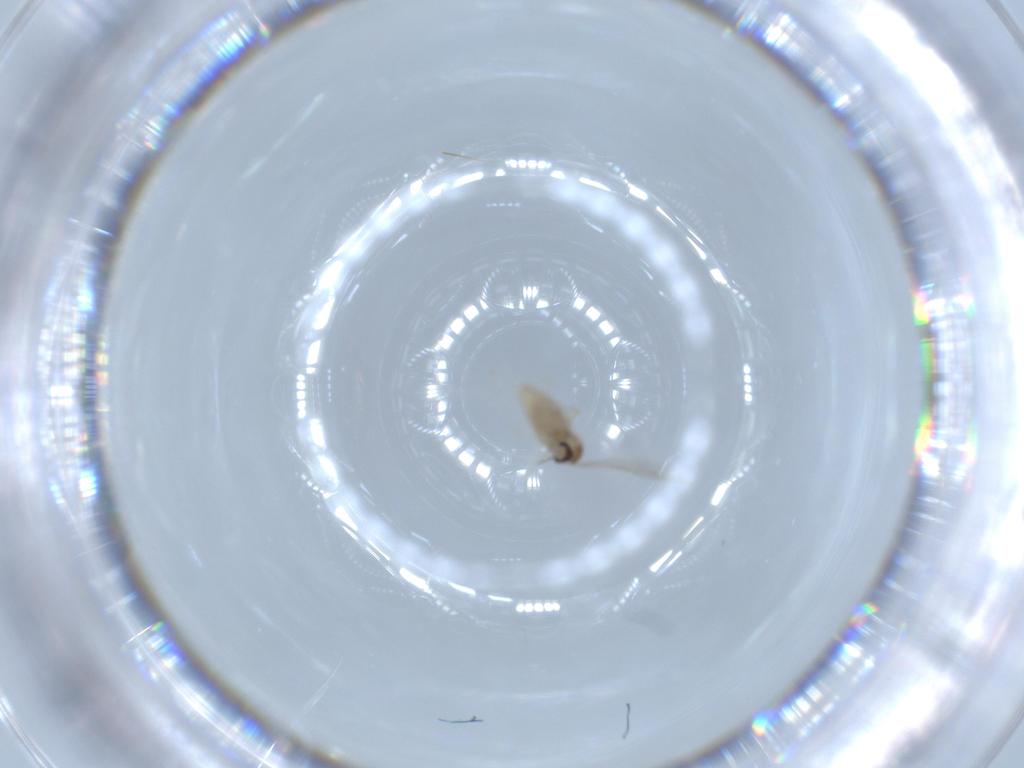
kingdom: Animalia
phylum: Arthropoda
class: Insecta
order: Diptera
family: Cecidomyiidae
